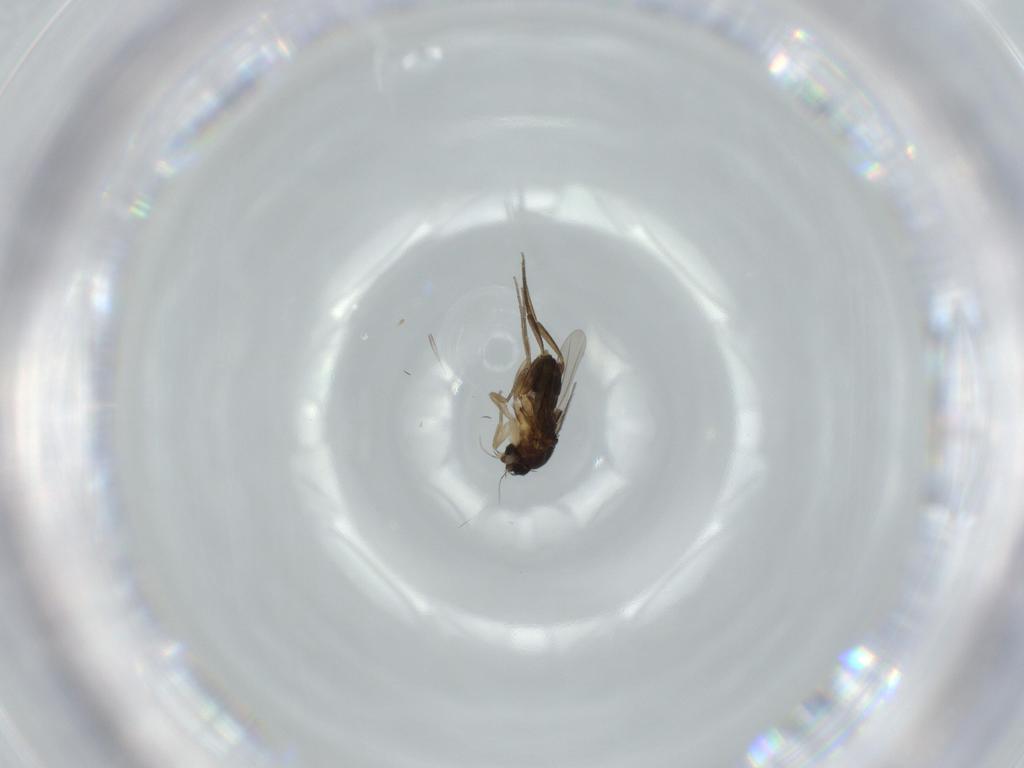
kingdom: Animalia
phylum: Arthropoda
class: Insecta
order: Diptera
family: Phoridae
